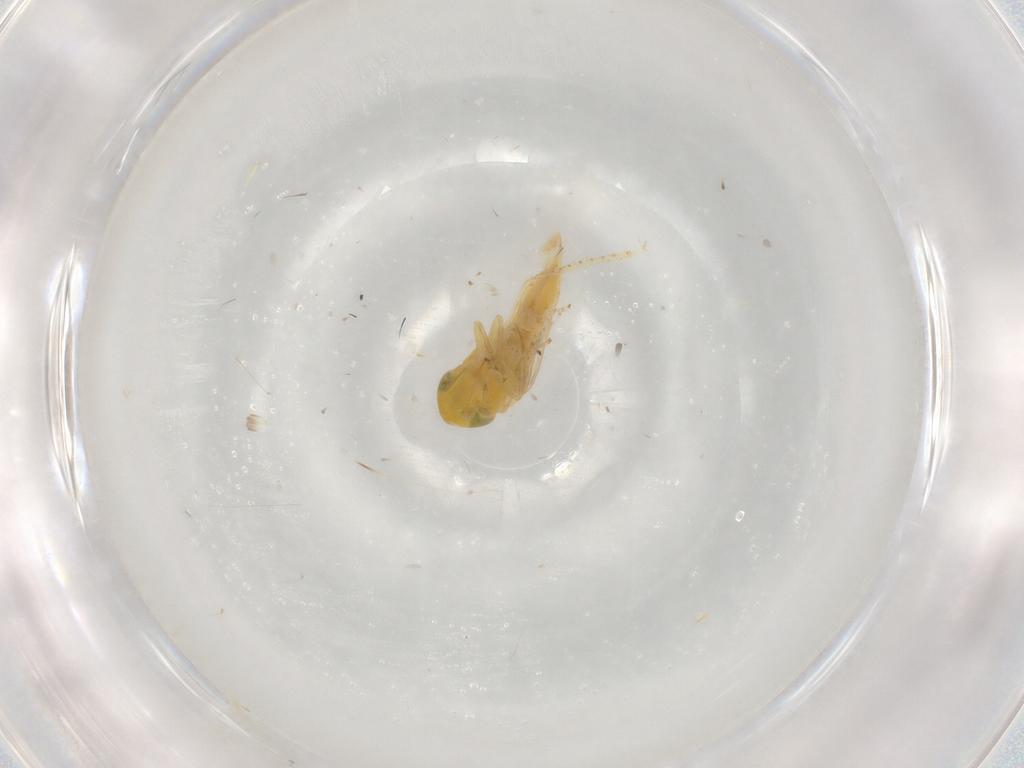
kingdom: Animalia
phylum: Arthropoda
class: Insecta
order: Hemiptera
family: Cicadellidae
